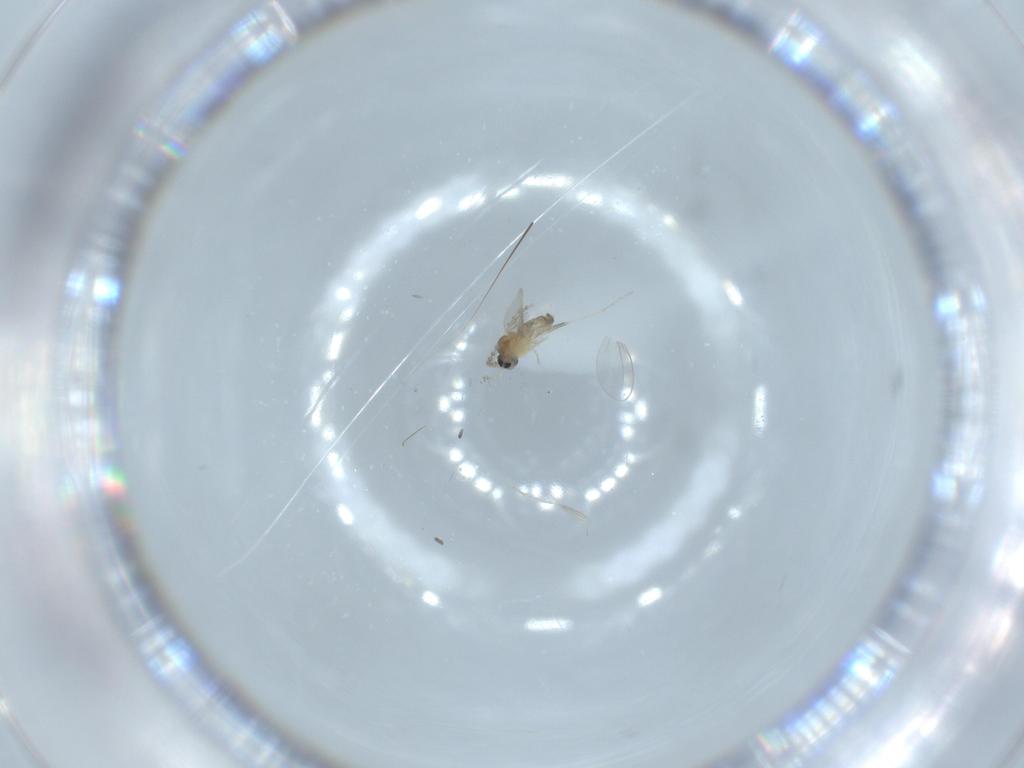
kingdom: Animalia
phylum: Arthropoda
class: Insecta
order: Diptera
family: Cecidomyiidae
